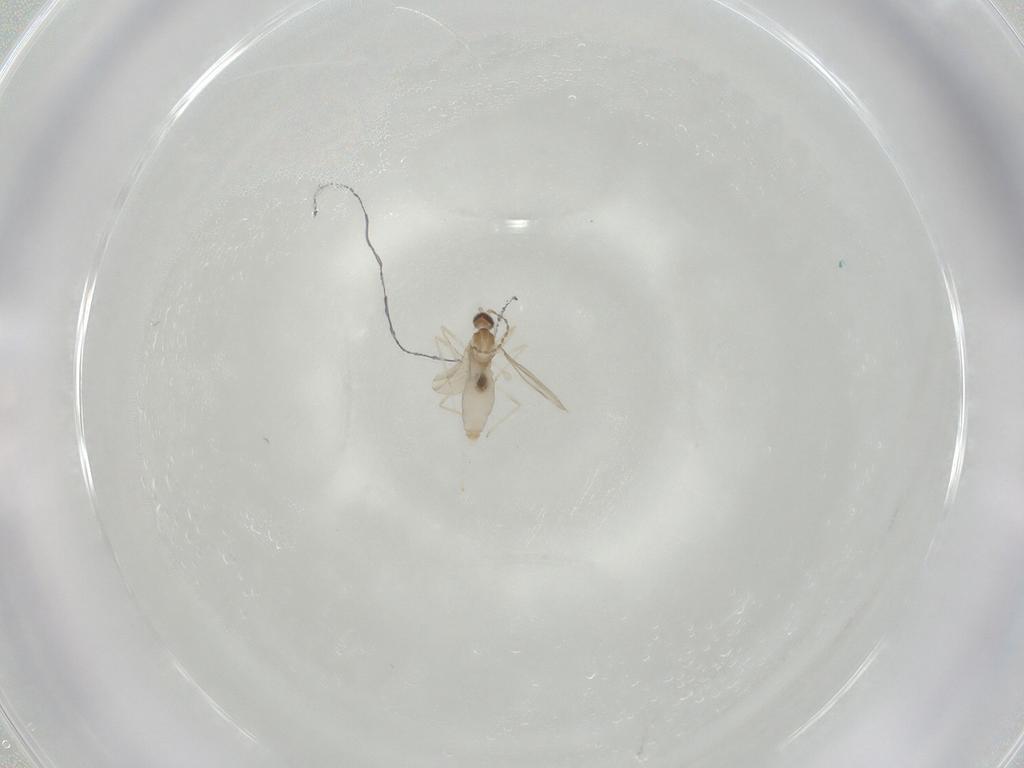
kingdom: Animalia
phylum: Arthropoda
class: Insecta
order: Diptera
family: Cecidomyiidae
